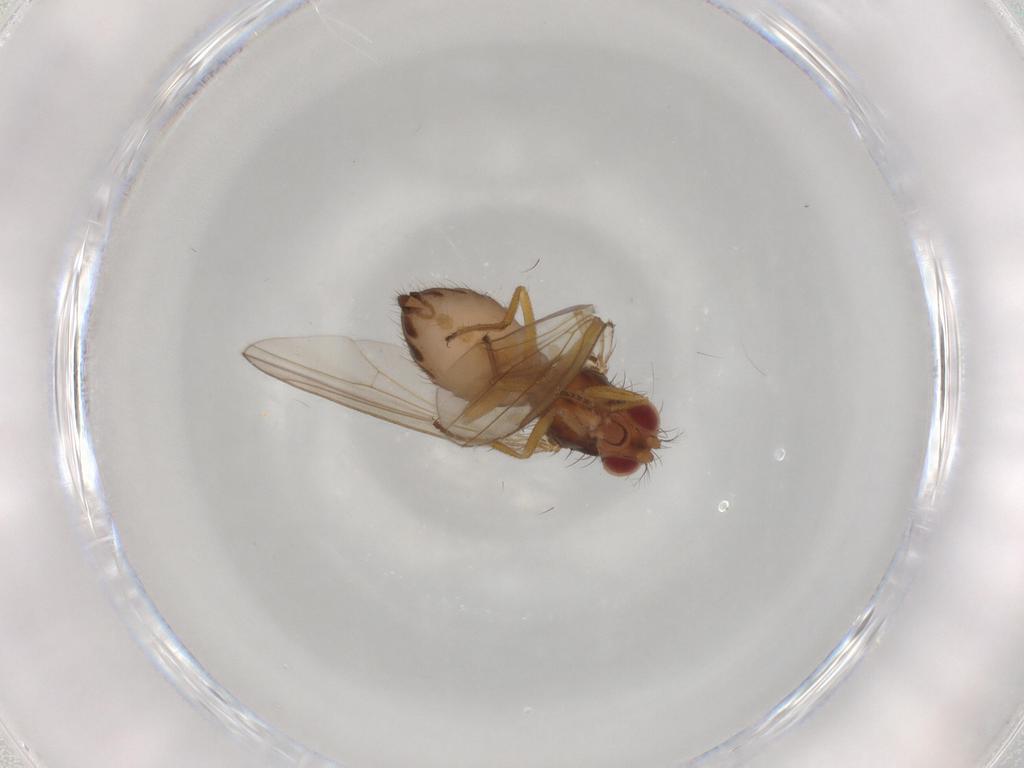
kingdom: Animalia
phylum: Arthropoda
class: Insecta
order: Diptera
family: Drosophilidae
